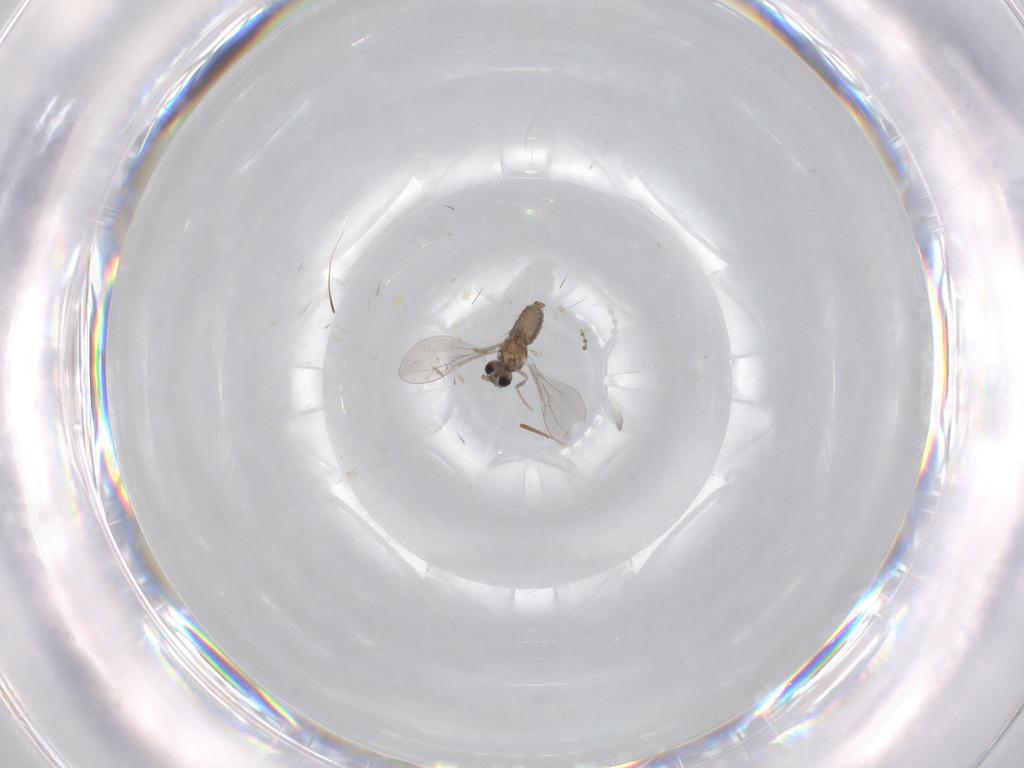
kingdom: Animalia
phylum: Arthropoda
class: Insecta
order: Diptera
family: Cecidomyiidae
